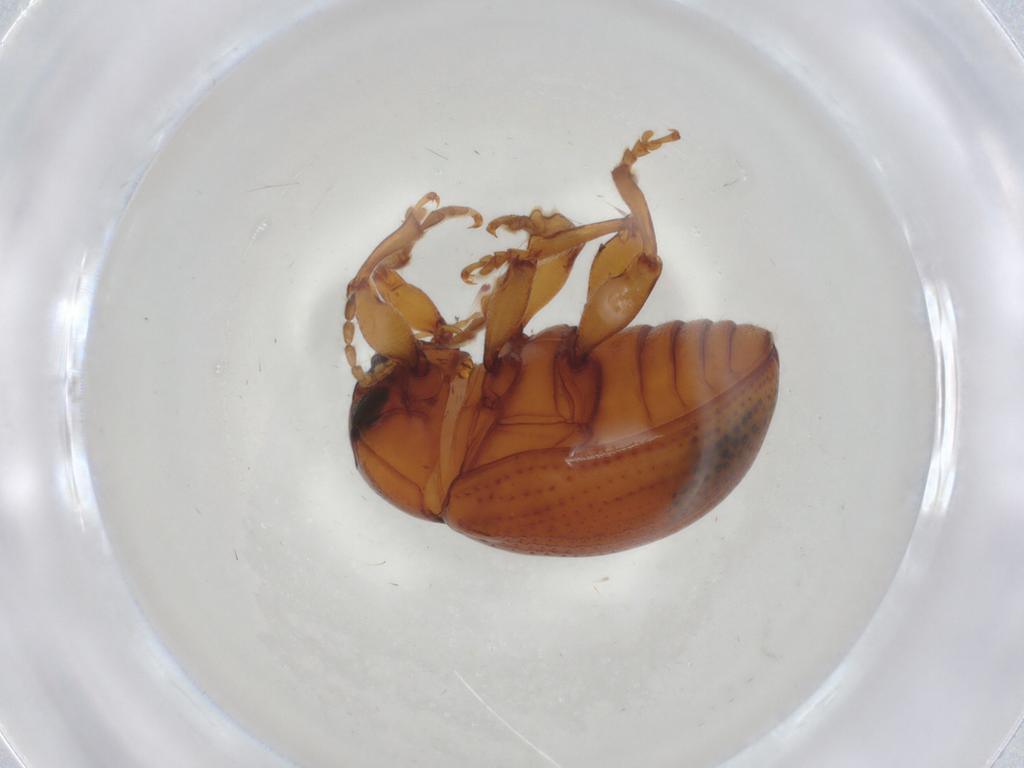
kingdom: Animalia
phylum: Arthropoda
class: Insecta
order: Coleoptera
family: Chrysomelidae
